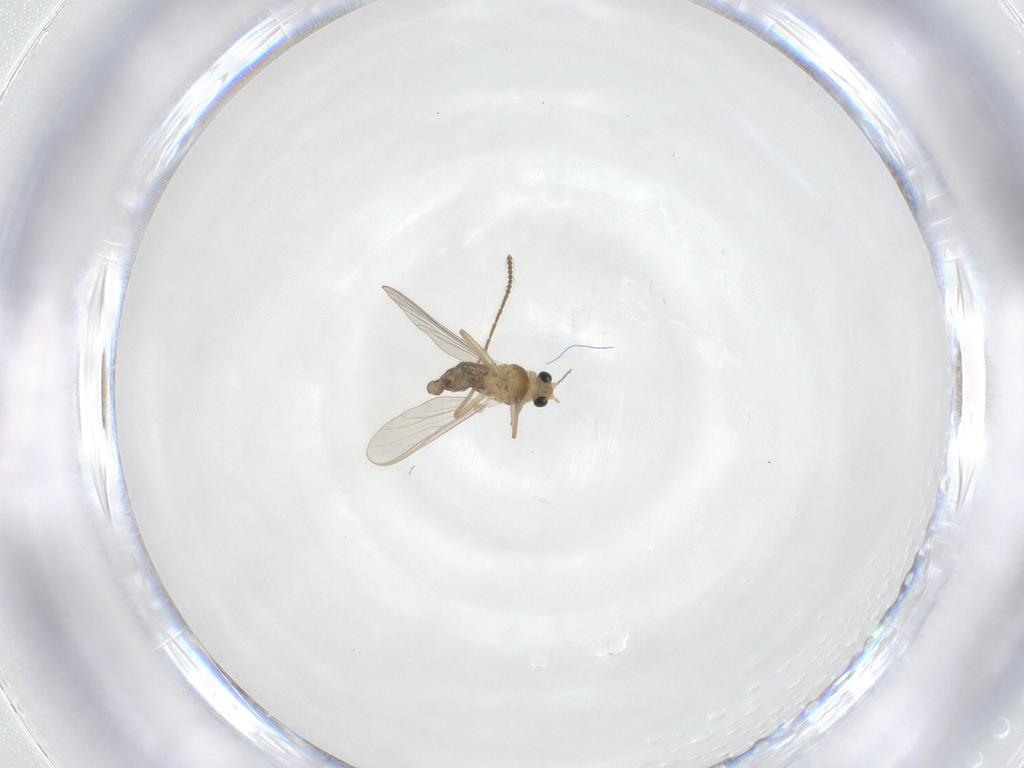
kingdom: Animalia
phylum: Arthropoda
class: Insecta
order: Diptera
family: Chironomidae
